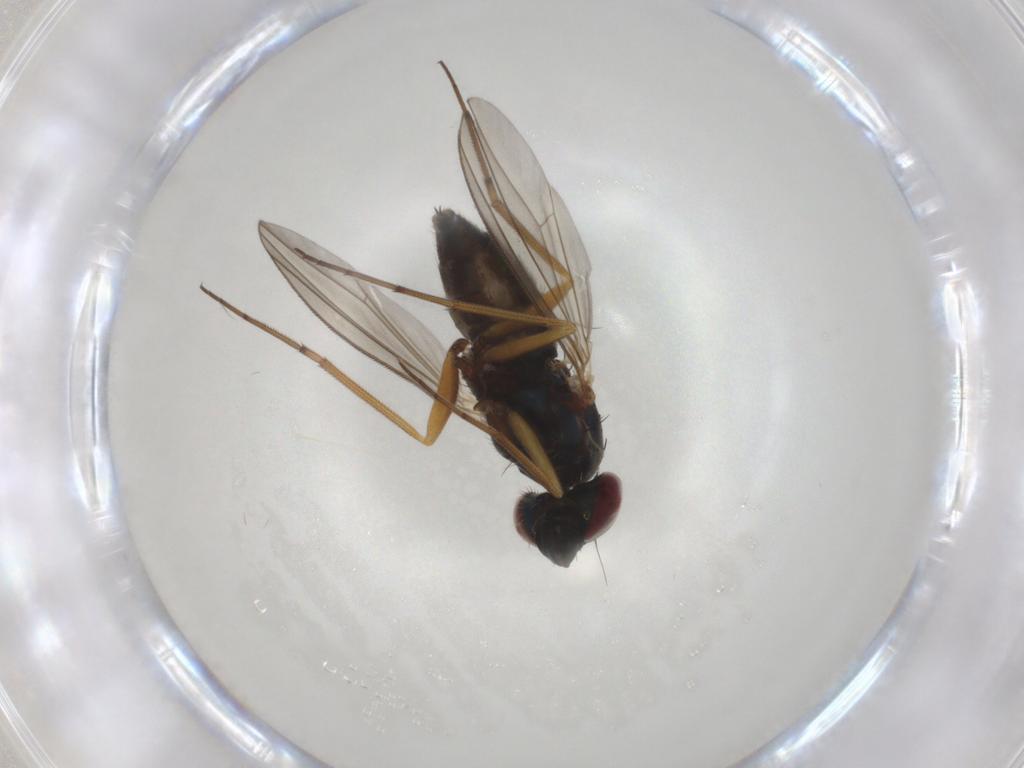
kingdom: Animalia
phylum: Arthropoda
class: Insecta
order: Diptera
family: Dolichopodidae
